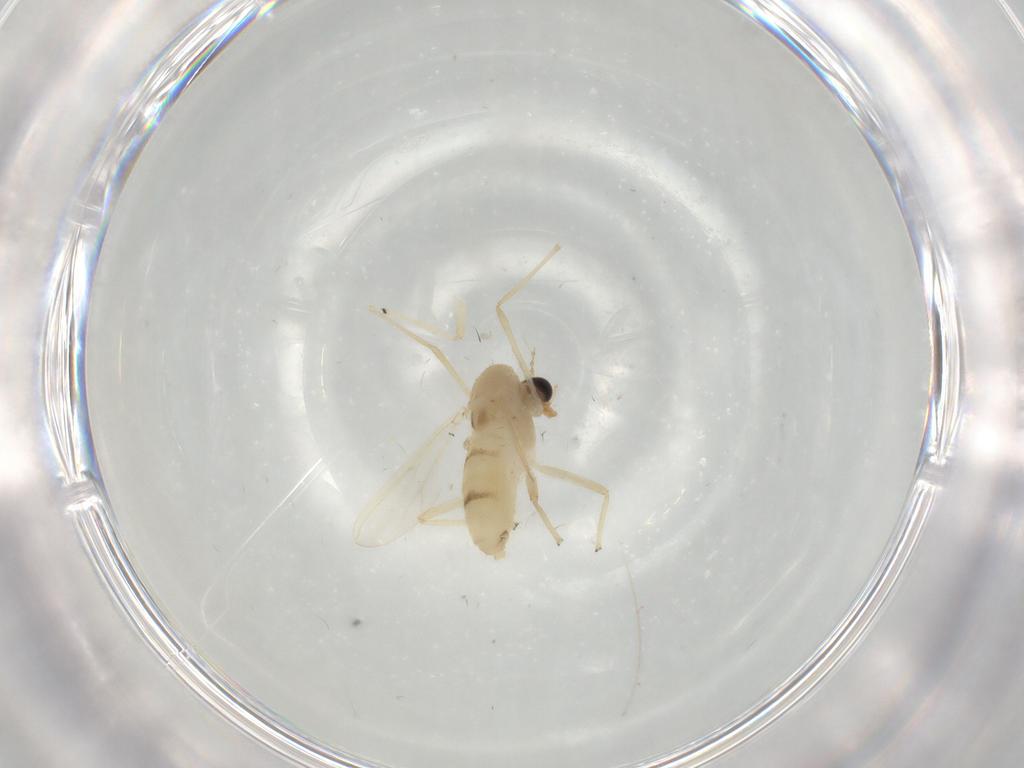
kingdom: Animalia
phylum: Arthropoda
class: Insecta
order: Diptera
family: Chironomidae
